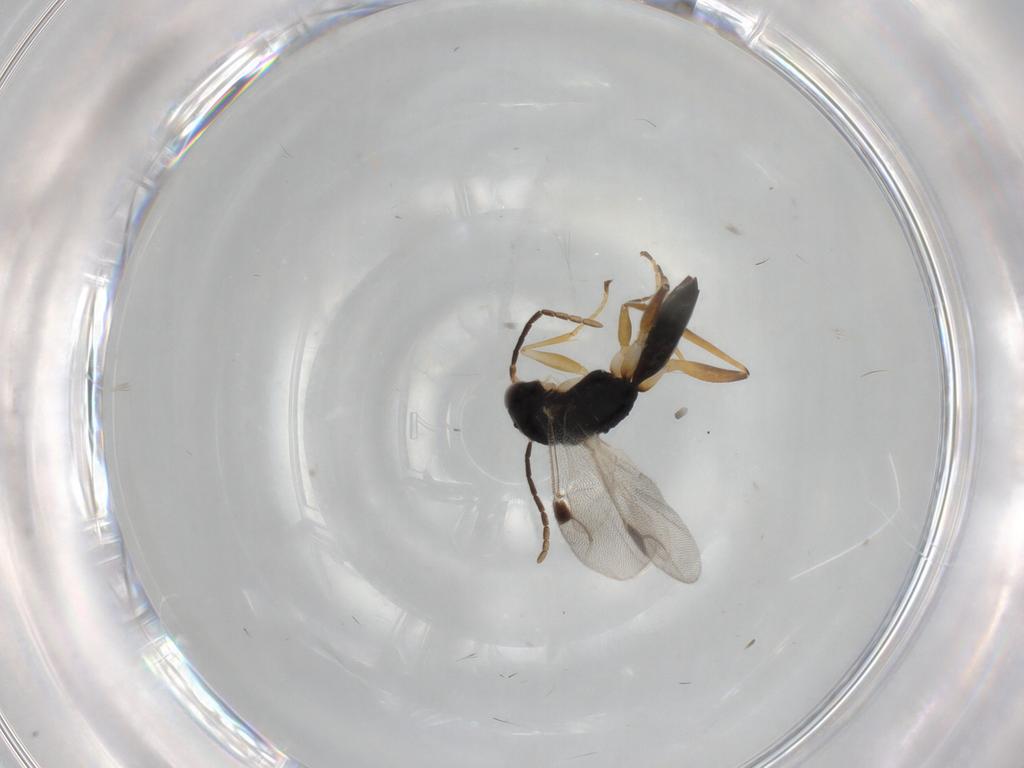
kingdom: Animalia
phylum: Arthropoda
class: Insecta
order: Hymenoptera
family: Dryinidae
